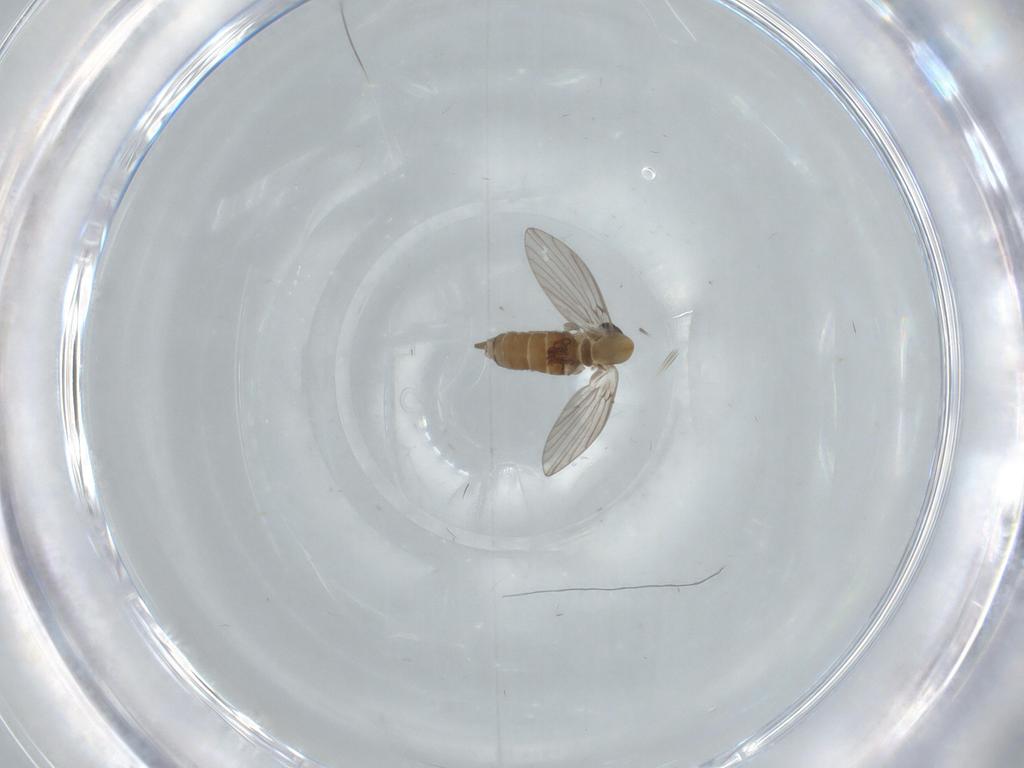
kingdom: Animalia
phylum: Arthropoda
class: Insecta
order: Diptera
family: Psychodidae
